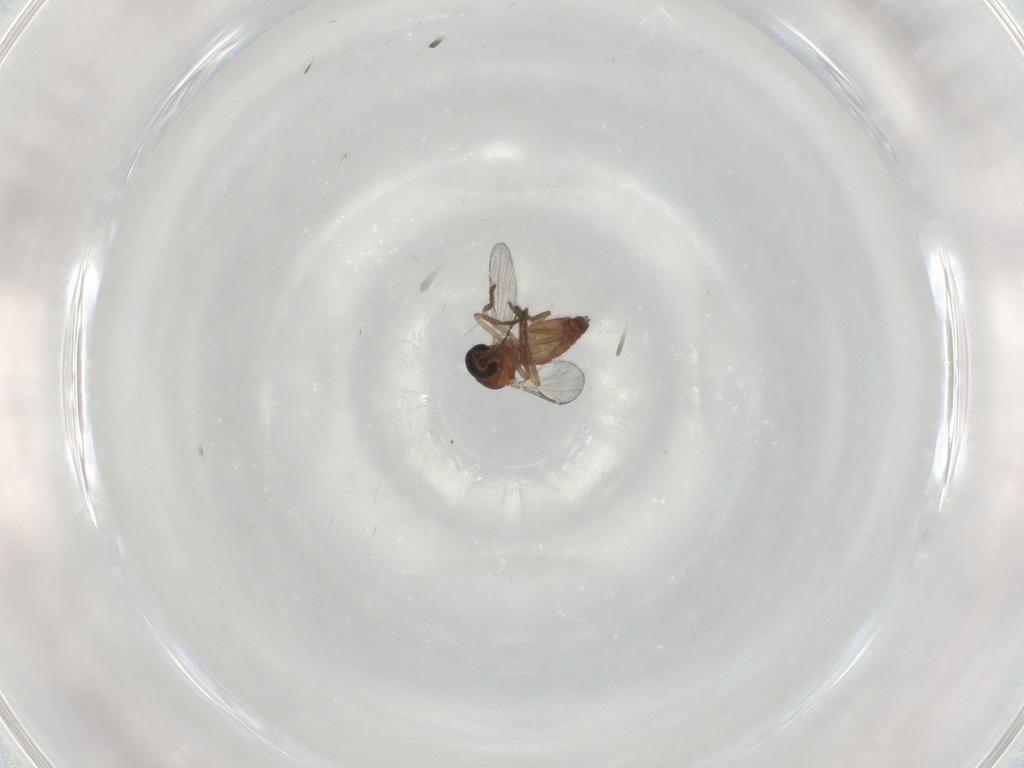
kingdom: Animalia
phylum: Arthropoda
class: Insecta
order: Diptera
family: Ceratopogonidae
